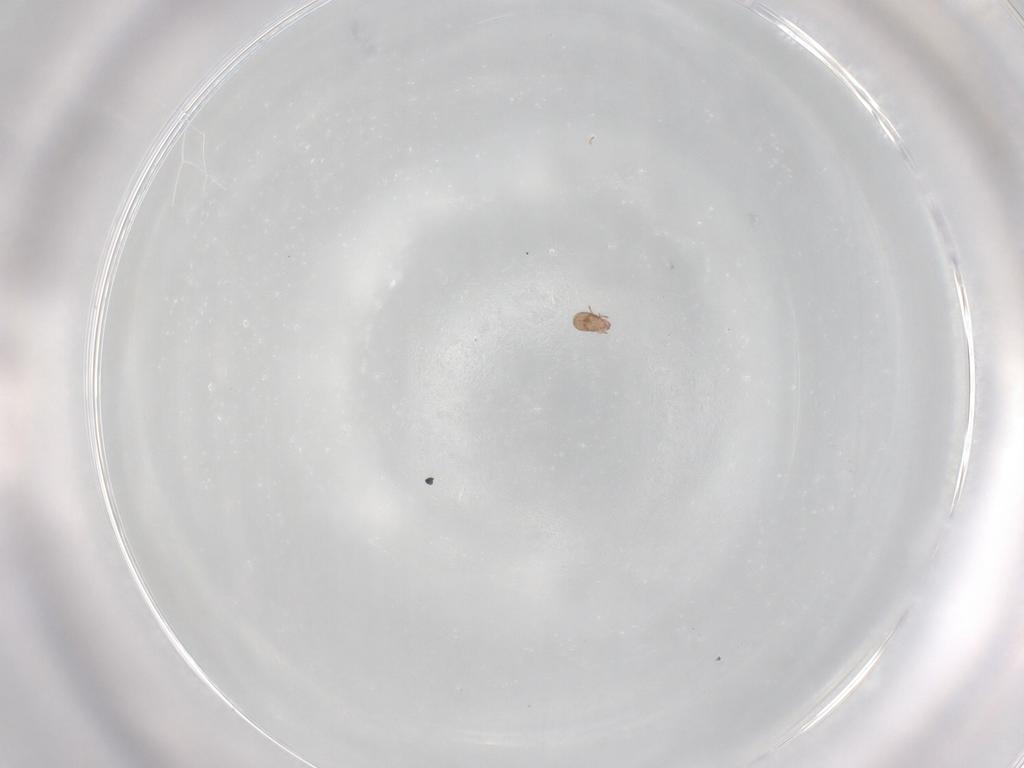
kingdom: Animalia
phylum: Arthropoda
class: Arachnida
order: Sarcoptiformes
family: Eremaeidae
